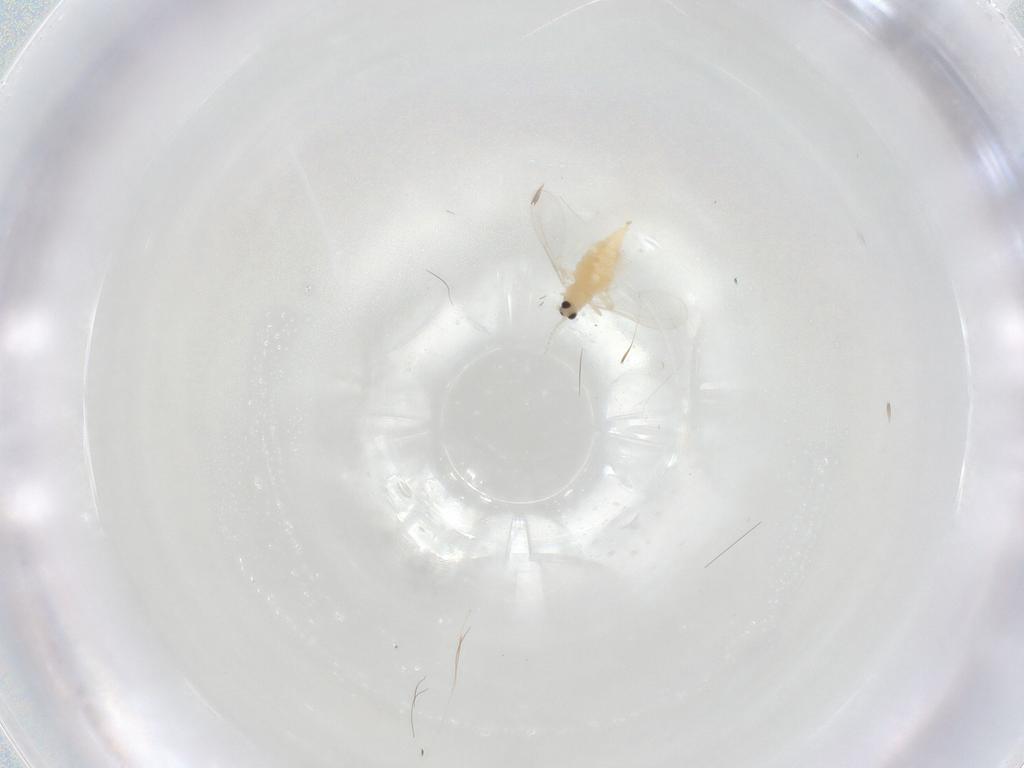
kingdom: Animalia
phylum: Arthropoda
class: Insecta
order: Diptera
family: Cecidomyiidae
